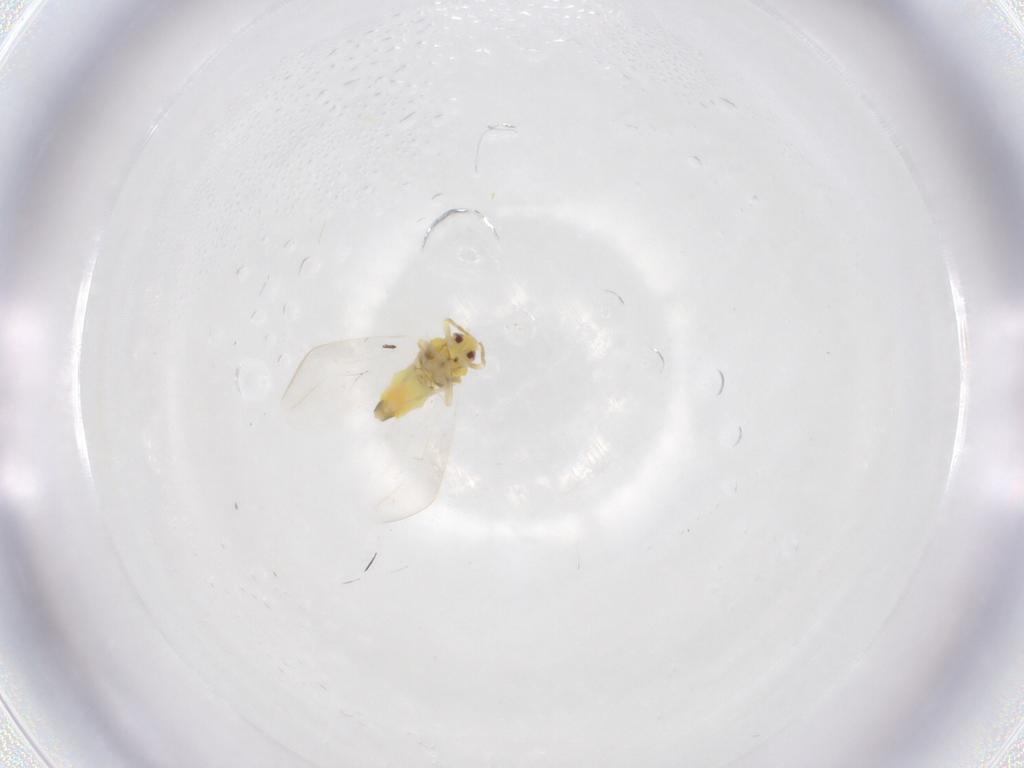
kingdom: Animalia
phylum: Arthropoda
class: Insecta
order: Hemiptera
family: Aleyrodidae
